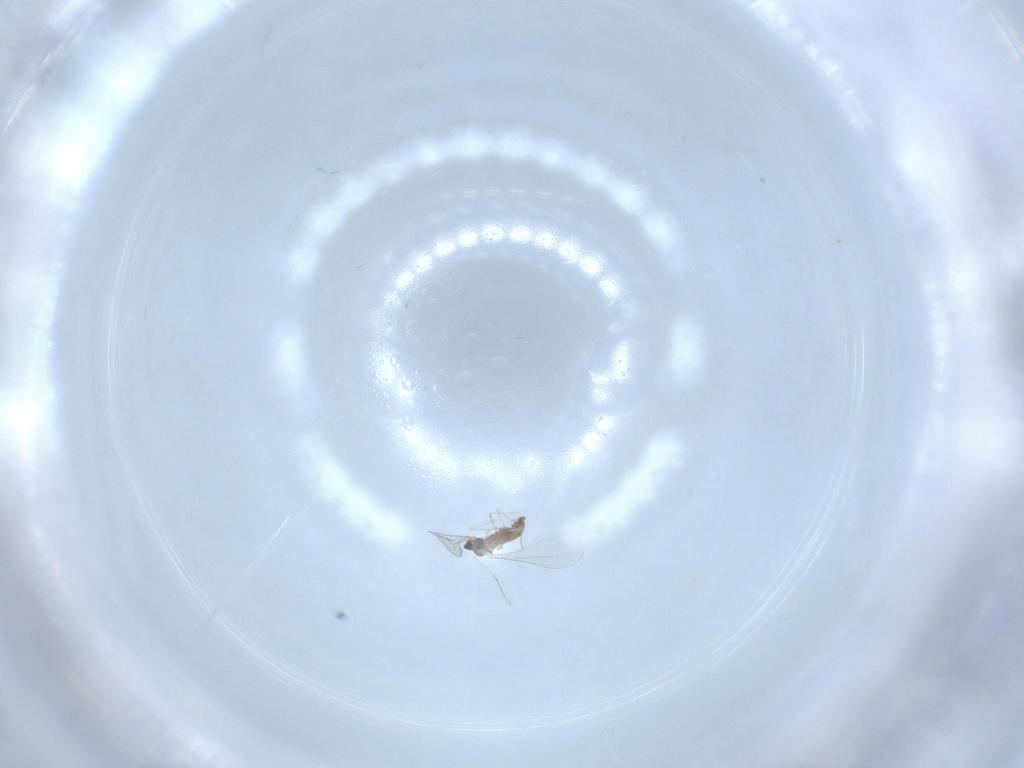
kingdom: Animalia
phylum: Arthropoda
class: Insecta
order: Diptera
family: Cecidomyiidae
